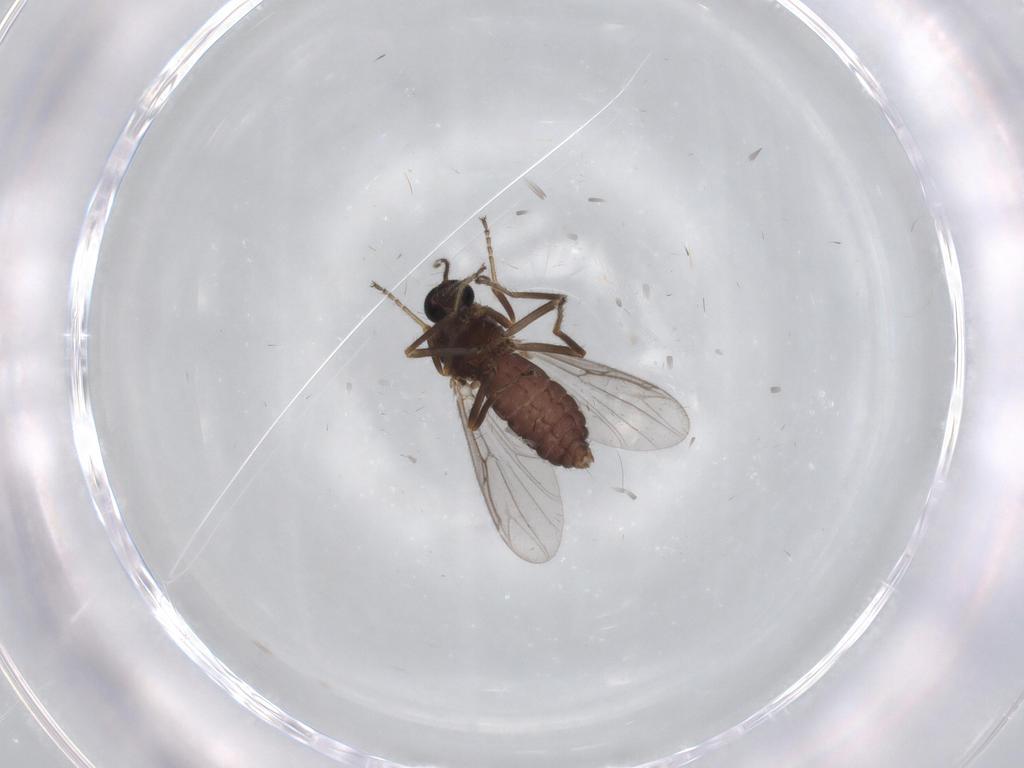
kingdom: Animalia
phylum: Arthropoda
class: Insecta
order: Diptera
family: Ceratopogonidae
